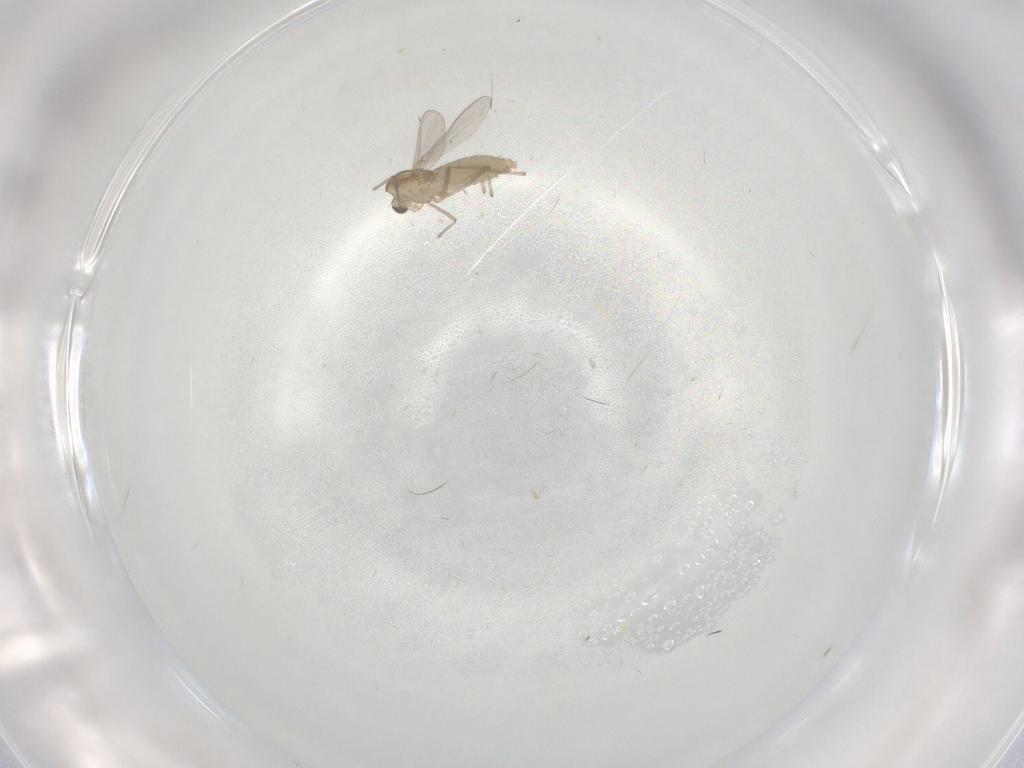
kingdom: Animalia
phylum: Arthropoda
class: Insecta
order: Diptera
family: Chironomidae
